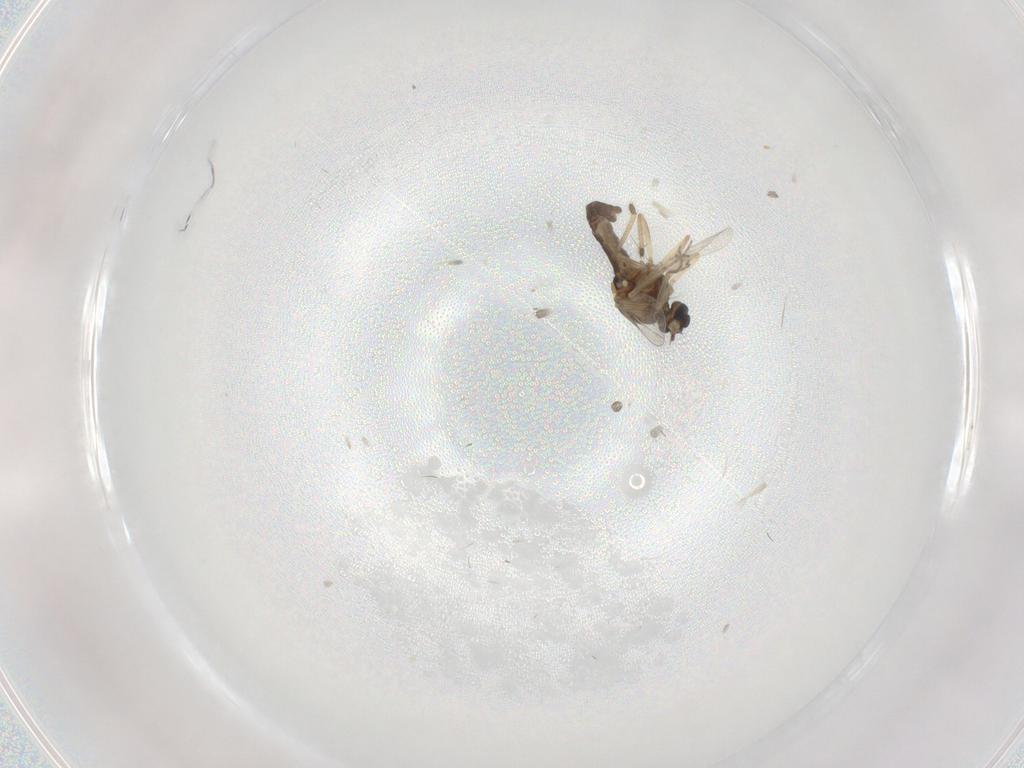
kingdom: Animalia
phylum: Arthropoda
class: Insecta
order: Diptera
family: Ceratopogonidae
